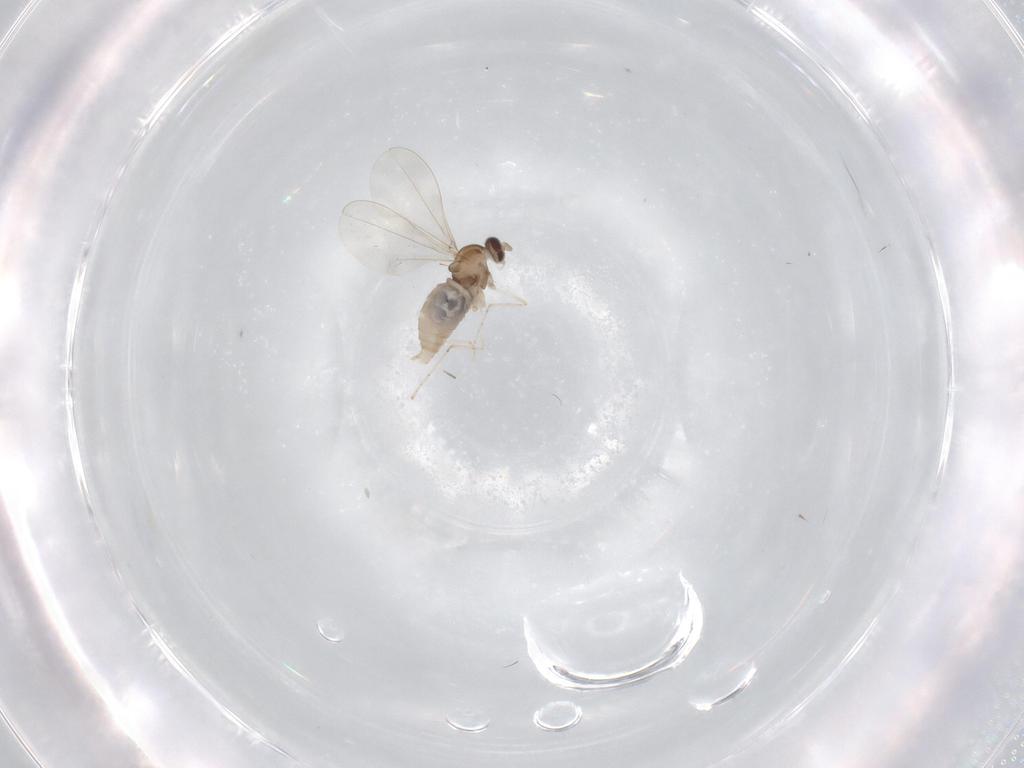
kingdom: Animalia
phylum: Arthropoda
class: Insecta
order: Diptera
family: Cecidomyiidae
